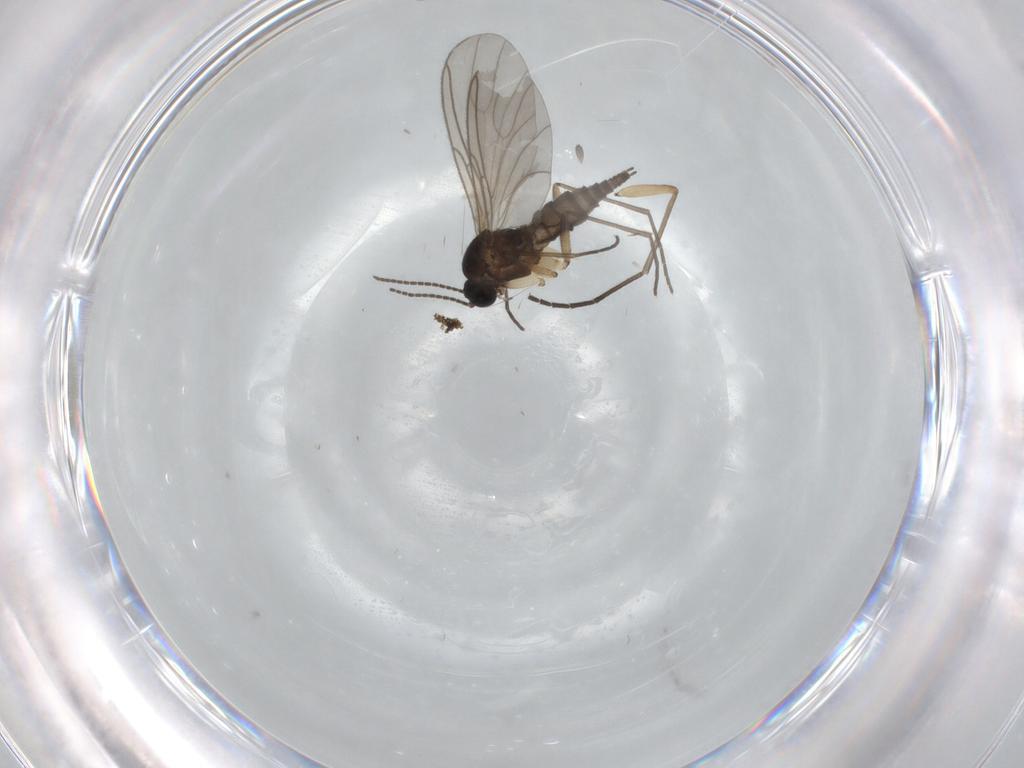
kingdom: Animalia
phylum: Arthropoda
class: Insecta
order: Diptera
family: Sciaridae
